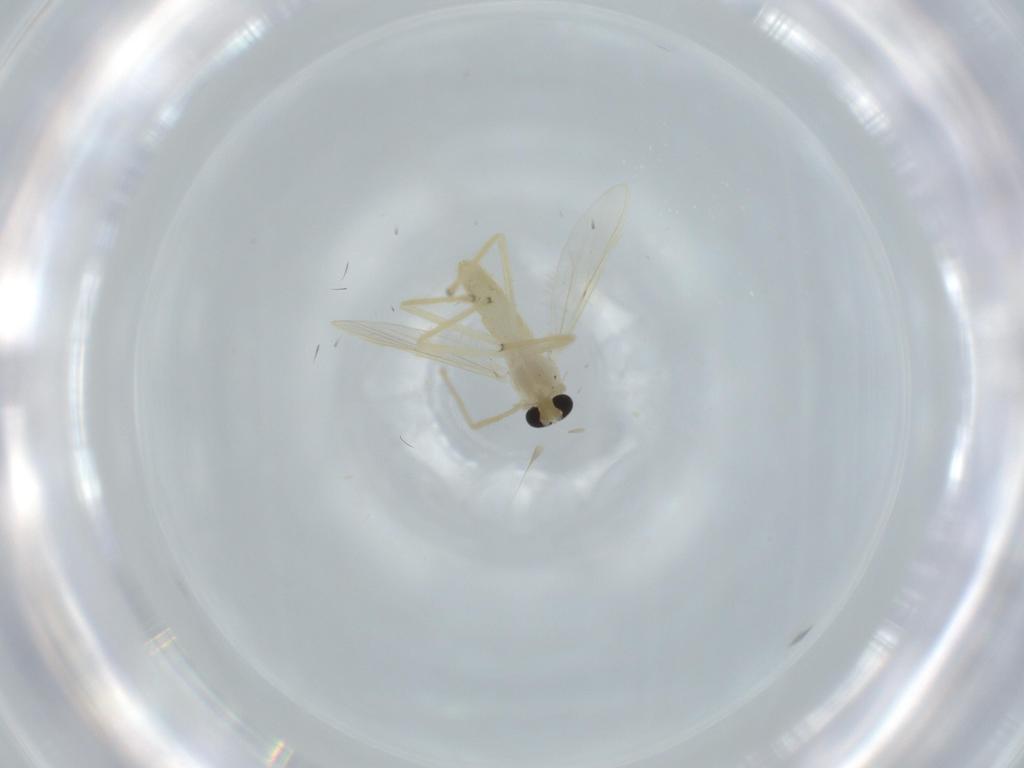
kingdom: Animalia
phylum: Arthropoda
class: Insecta
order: Diptera
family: Chironomidae
